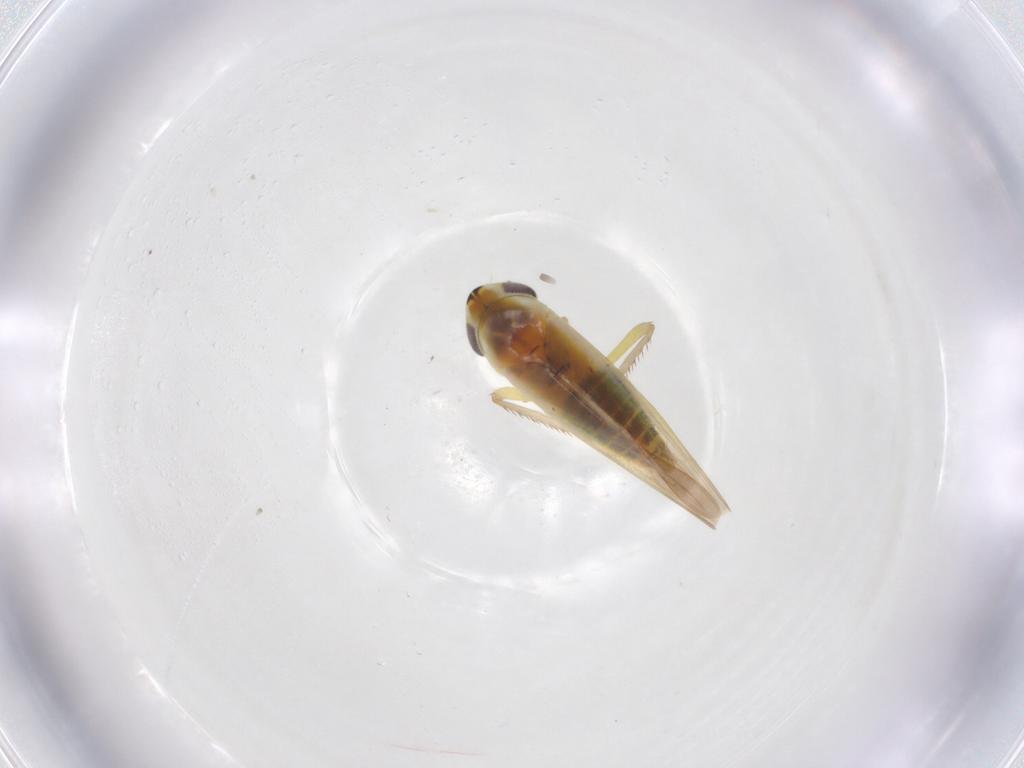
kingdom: Animalia
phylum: Arthropoda
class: Insecta
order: Hemiptera
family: Cicadellidae
